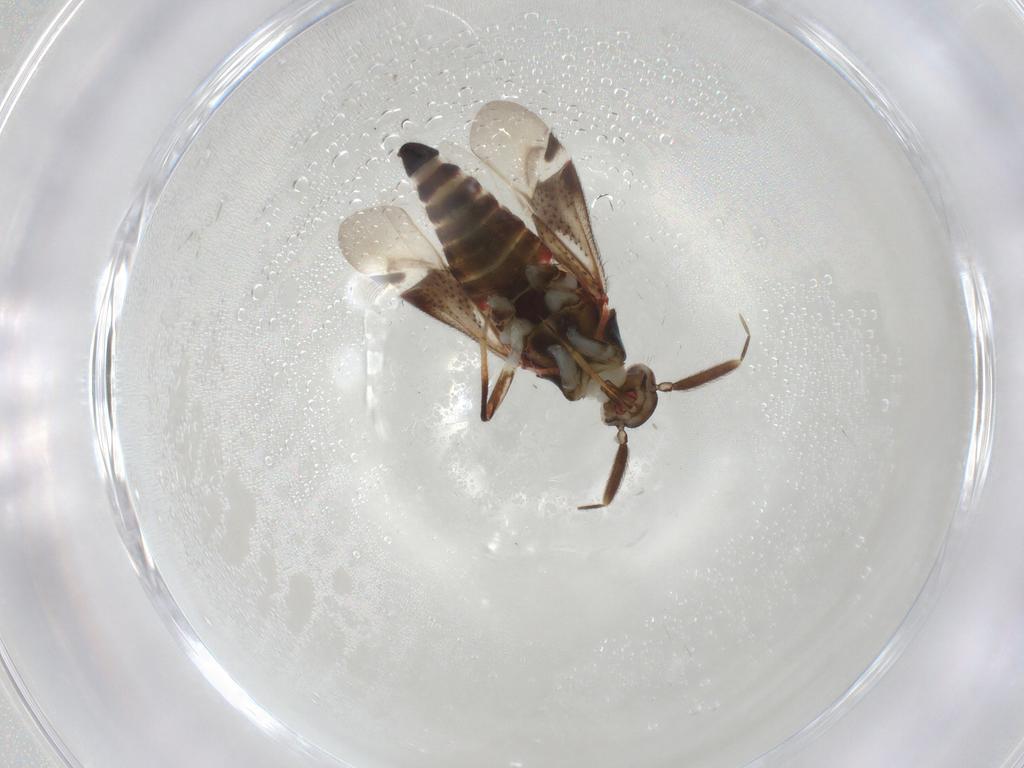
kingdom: Animalia
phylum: Arthropoda
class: Insecta
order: Hemiptera
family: Miridae
